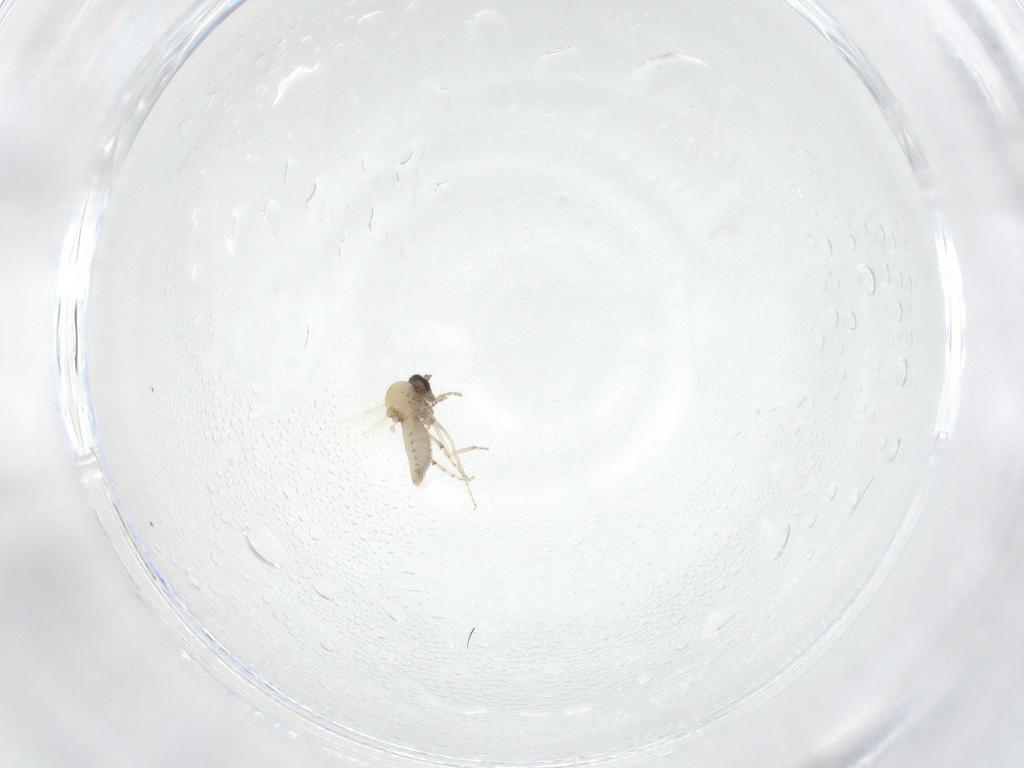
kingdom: Animalia
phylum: Arthropoda
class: Insecta
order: Diptera
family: Ceratopogonidae
